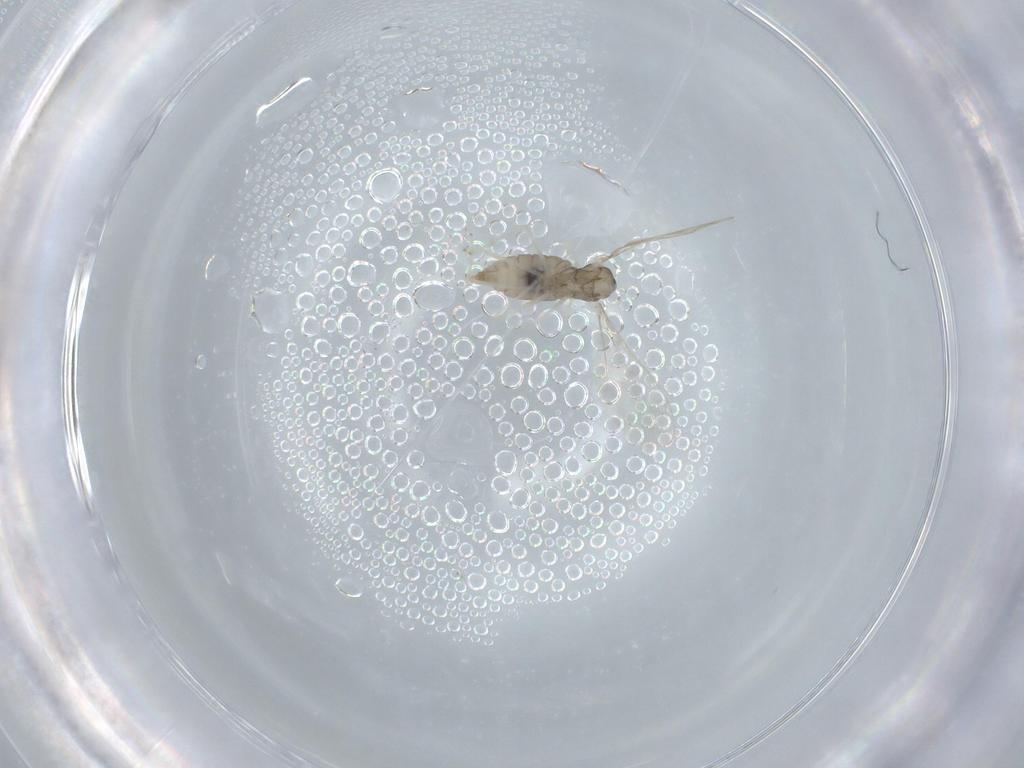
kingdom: Animalia
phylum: Arthropoda
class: Insecta
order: Diptera
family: Cecidomyiidae
